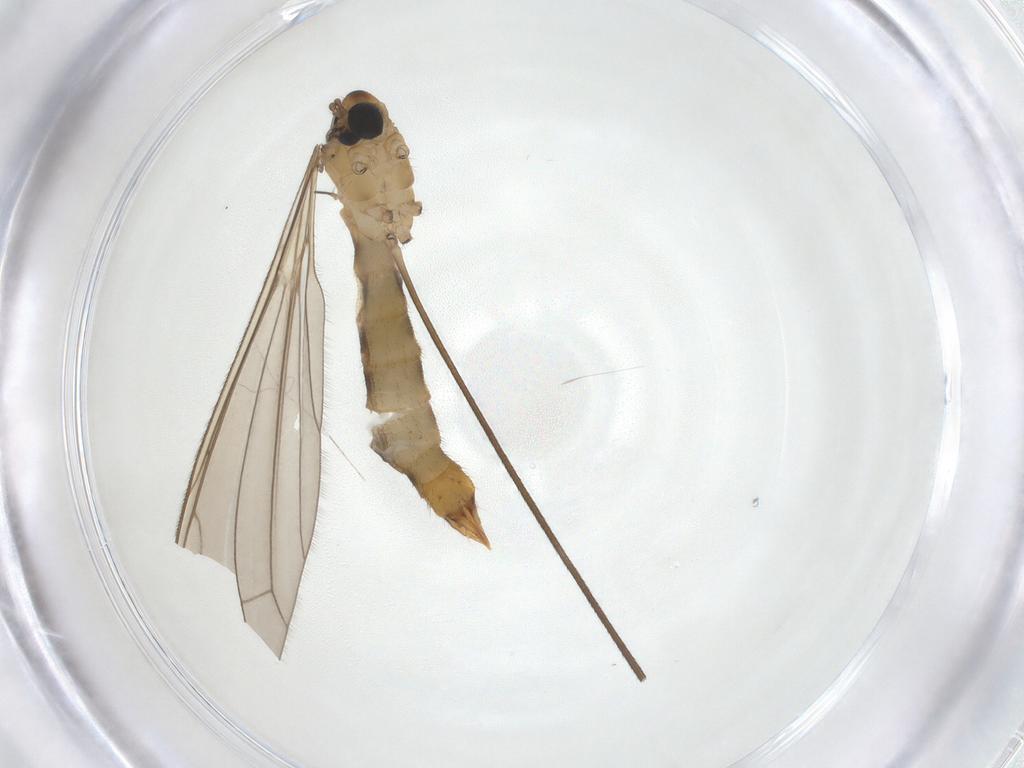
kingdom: Animalia
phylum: Arthropoda
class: Insecta
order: Diptera
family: Limoniidae
